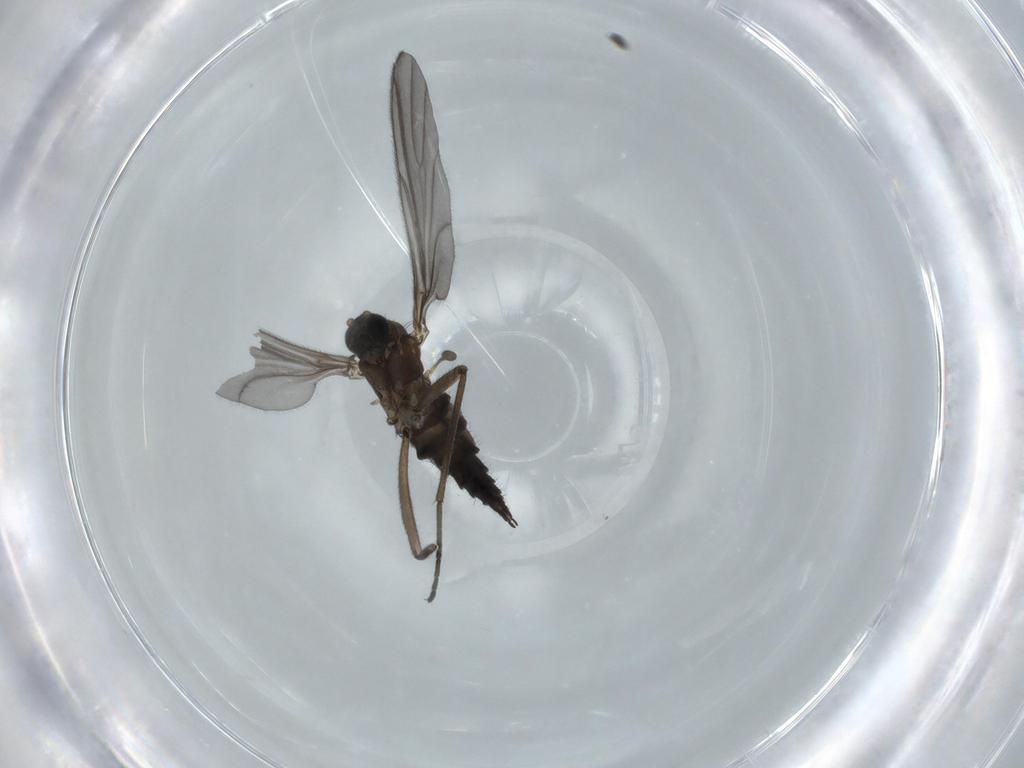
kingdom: Animalia
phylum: Arthropoda
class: Insecta
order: Diptera
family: Sciaridae
